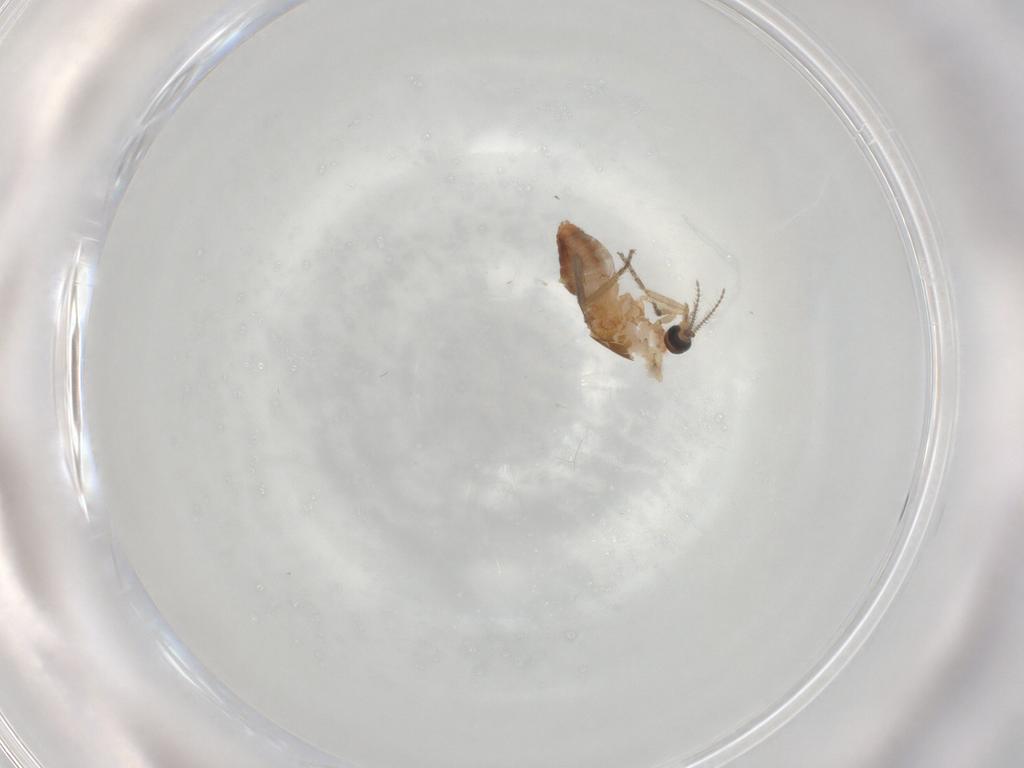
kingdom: Animalia
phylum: Arthropoda
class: Insecta
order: Diptera
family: Ceratopogonidae
